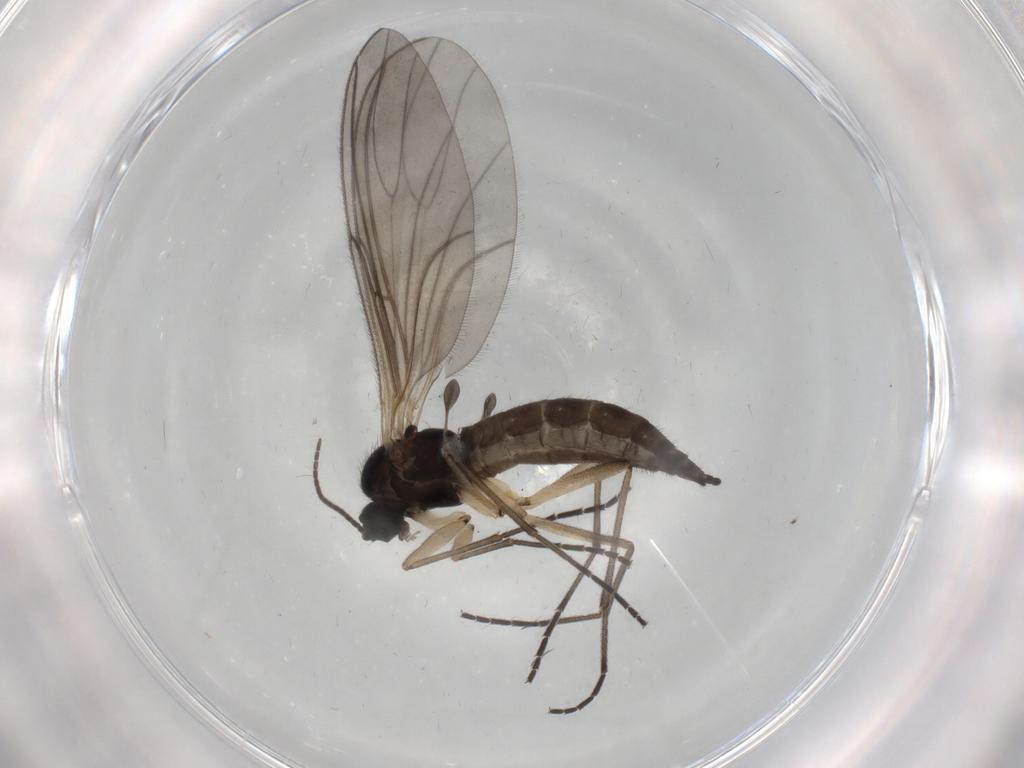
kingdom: Animalia
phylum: Arthropoda
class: Insecta
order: Diptera
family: Sciaridae
